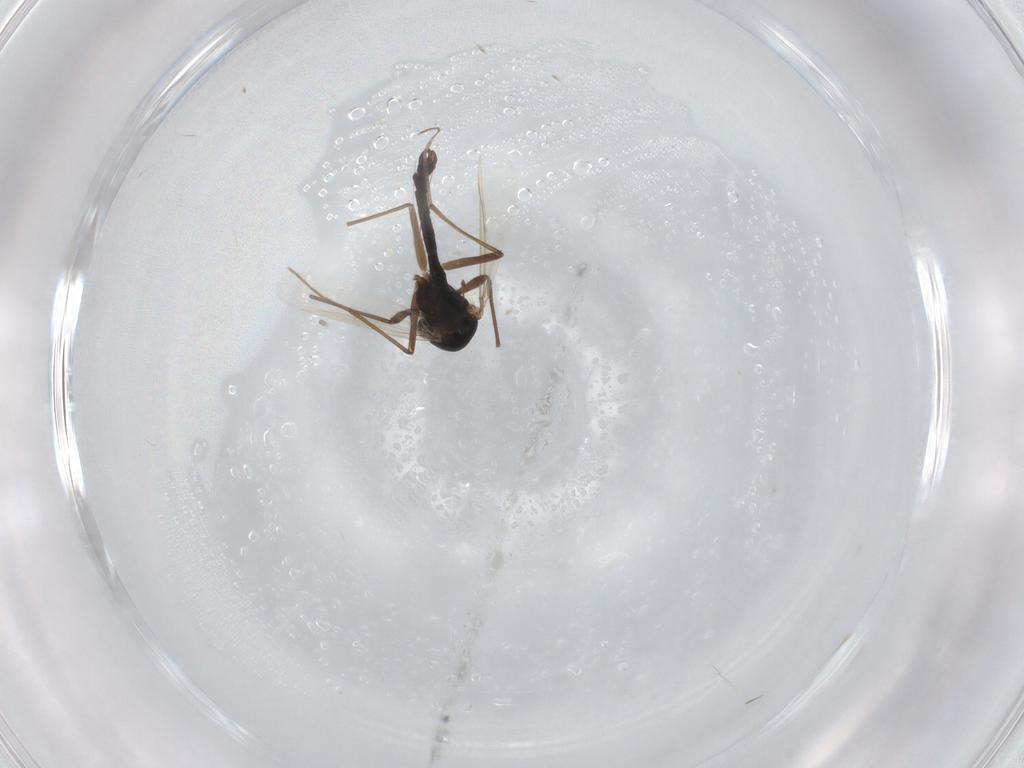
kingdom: Animalia
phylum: Arthropoda
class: Insecta
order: Diptera
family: Chironomidae
